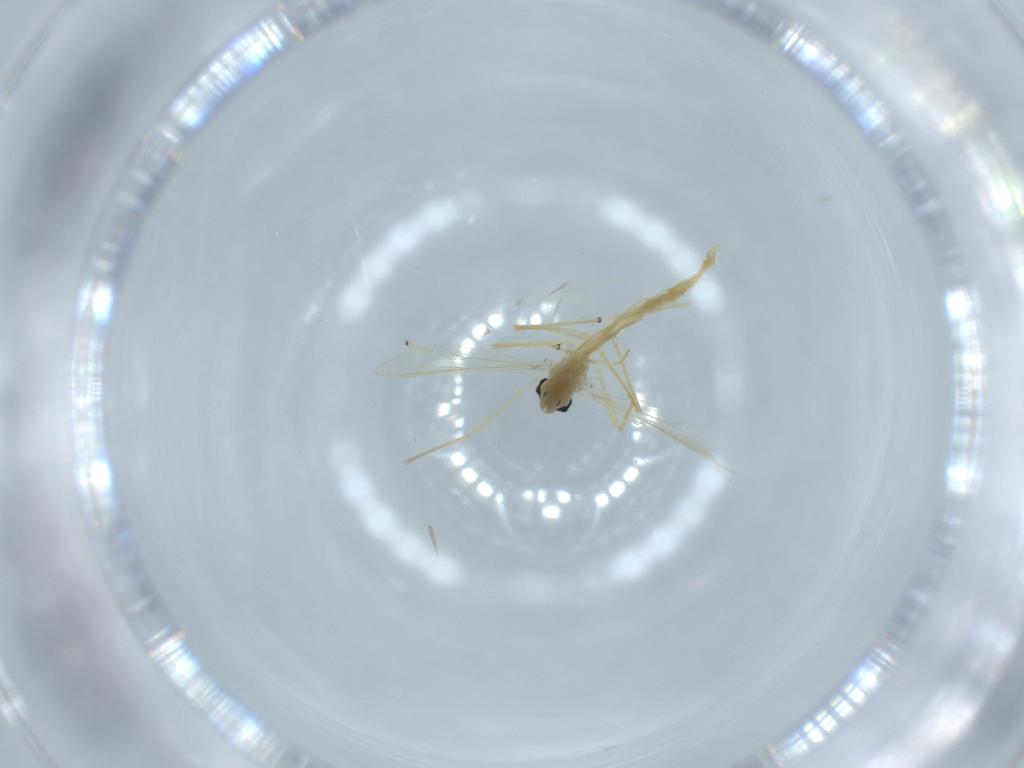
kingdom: Animalia
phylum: Arthropoda
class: Insecta
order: Diptera
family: Chironomidae
